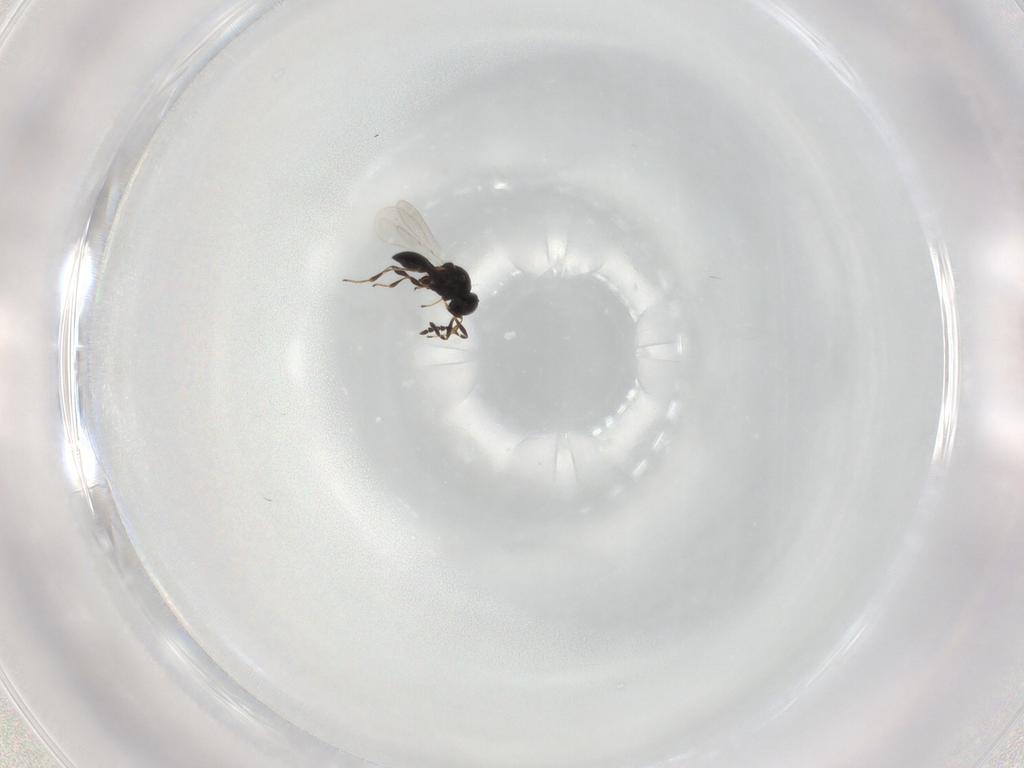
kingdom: Animalia
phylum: Arthropoda
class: Insecta
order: Hymenoptera
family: Platygastridae
